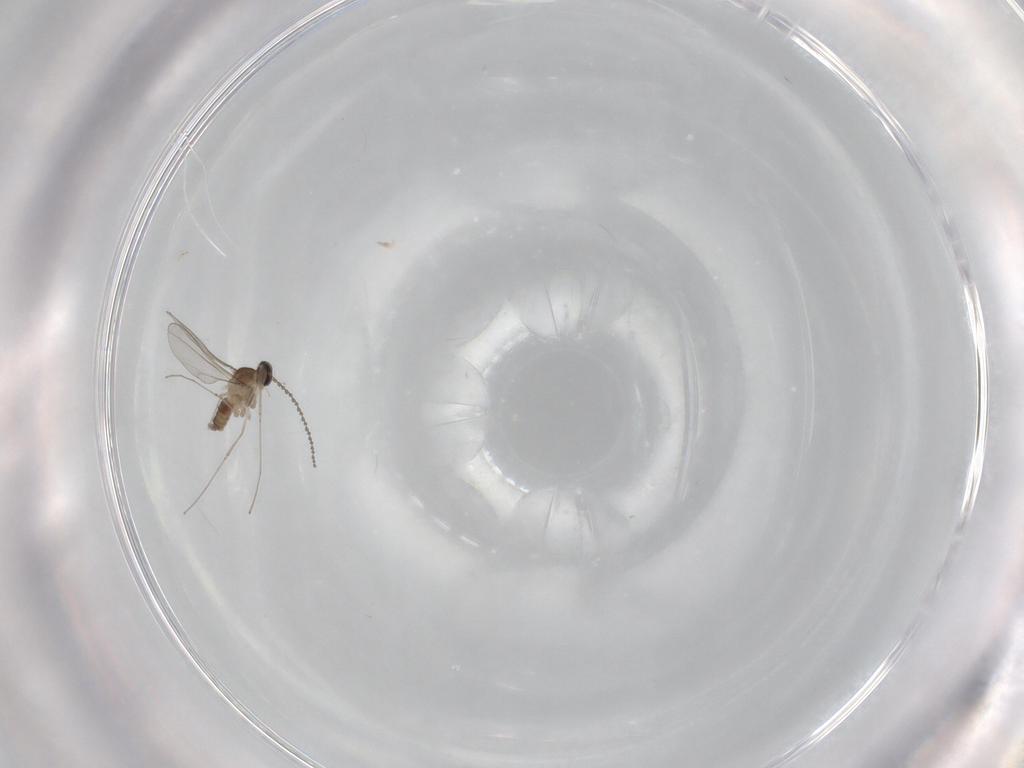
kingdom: Animalia
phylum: Arthropoda
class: Insecta
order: Diptera
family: Cecidomyiidae
